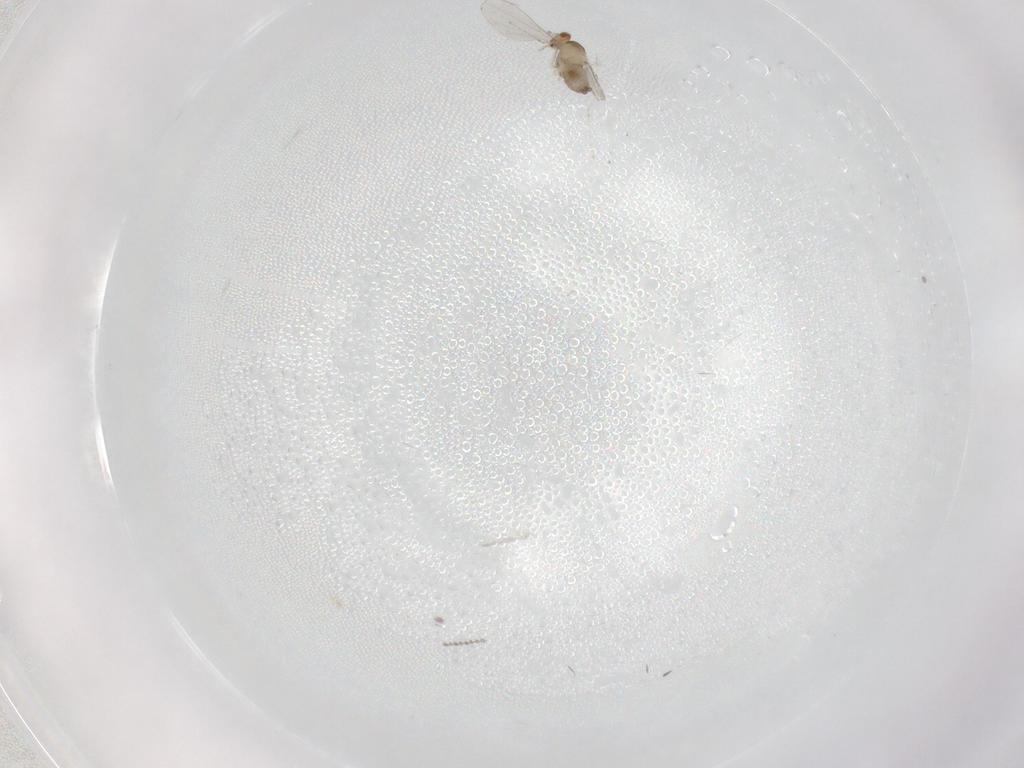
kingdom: Animalia
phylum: Arthropoda
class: Insecta
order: Diptera
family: Cecidomyiidae
